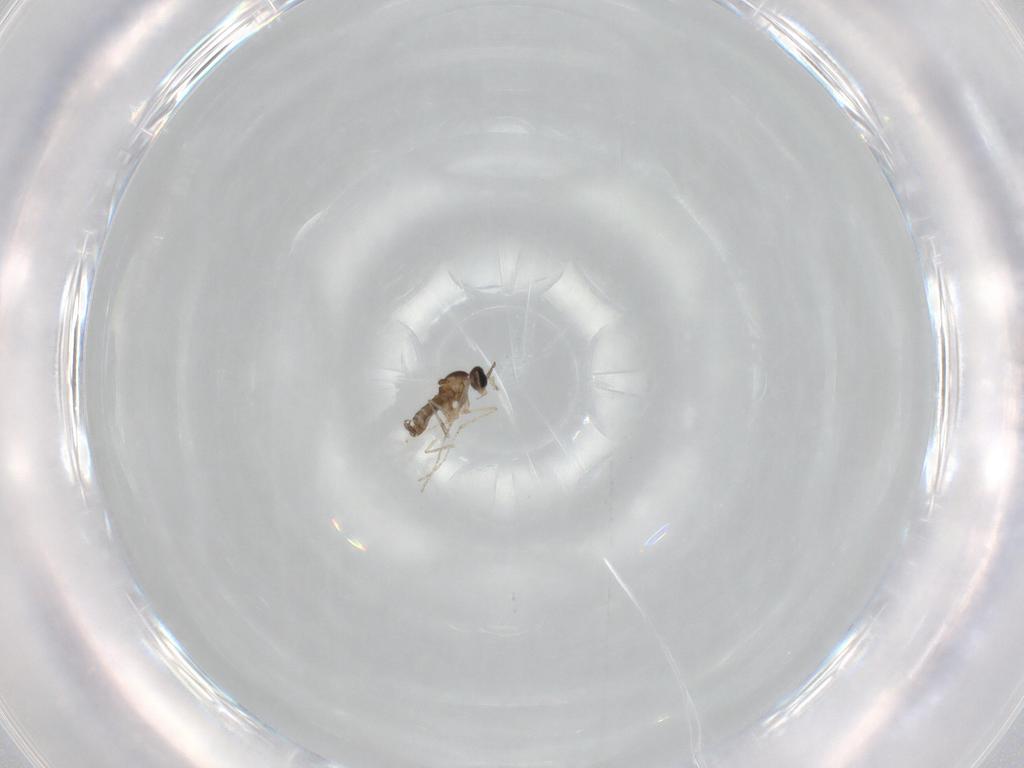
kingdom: Animalia
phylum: Arthropoda
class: Insecta
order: Diptera
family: Cecidomyiidae
